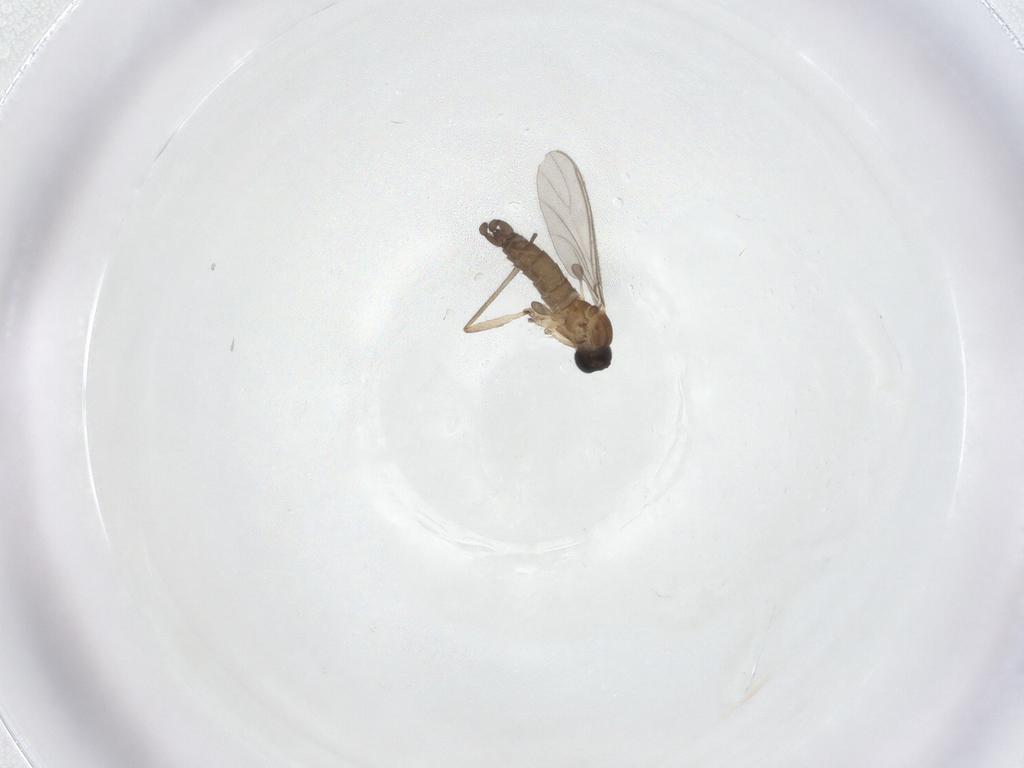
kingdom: Animalia
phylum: Arthropoda
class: Insecta
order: Diptera
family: Sciaridae
